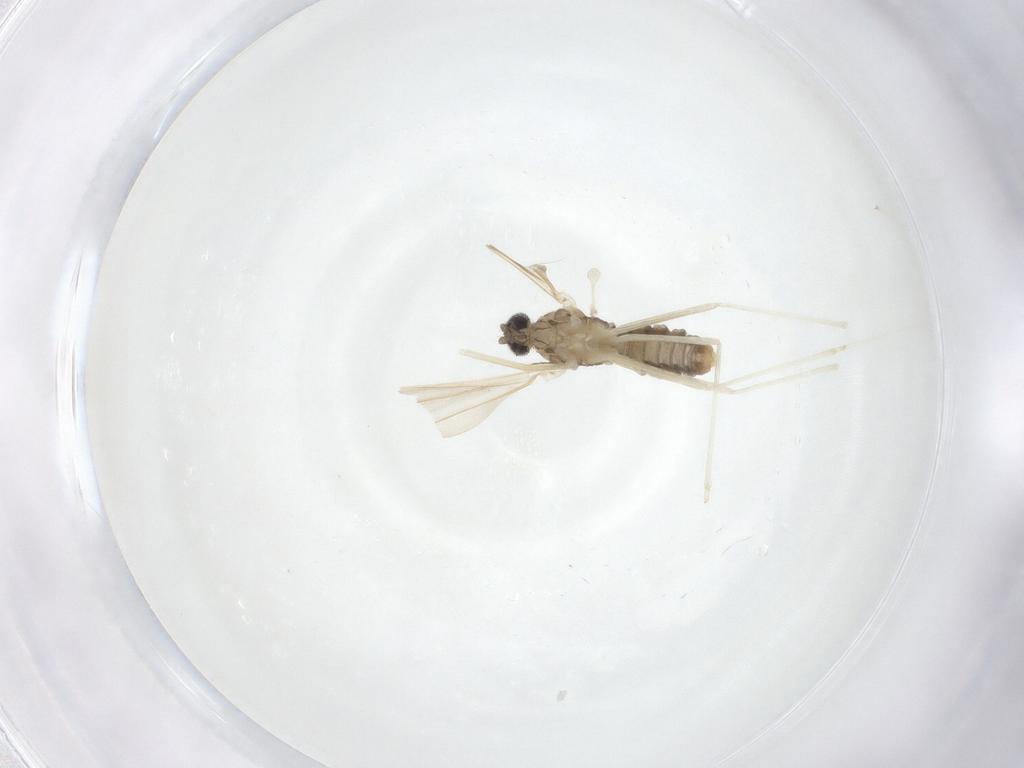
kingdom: Animalia
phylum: Arthropoda
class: Insecta
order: Diptera
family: Cecidomyiidae
